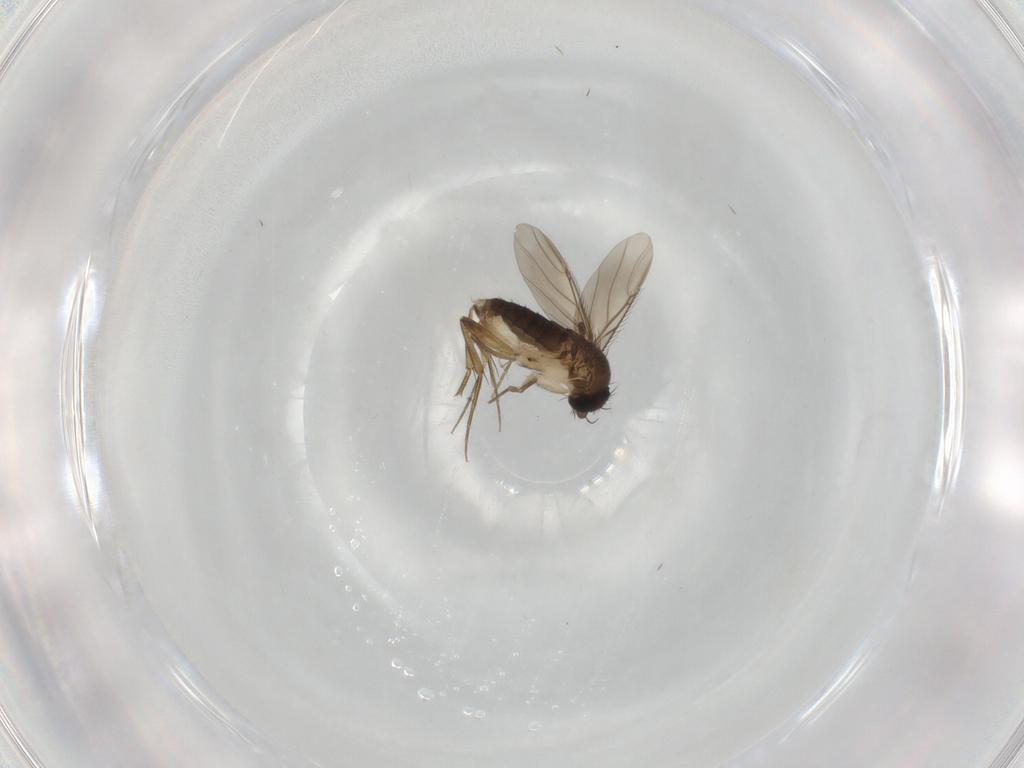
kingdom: Animalia
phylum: Arthropoda
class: Insecta
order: Diptera
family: Phoridae
